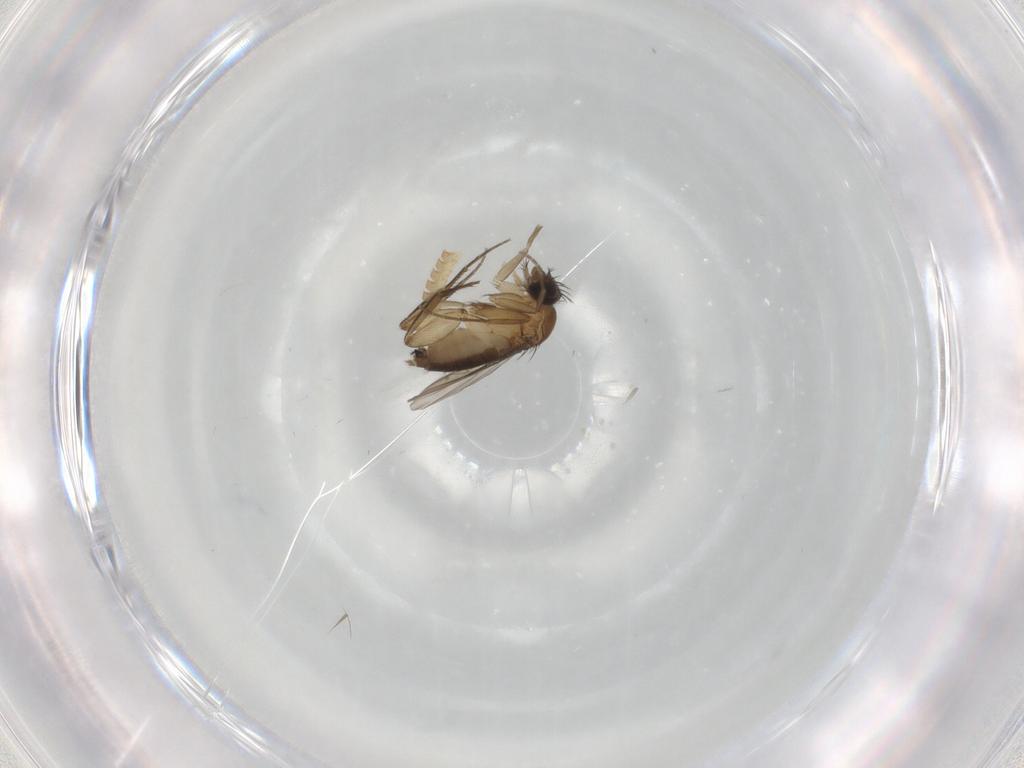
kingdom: Animalia
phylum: Arthropoda
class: Insecta
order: Diptera
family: Phoridae
